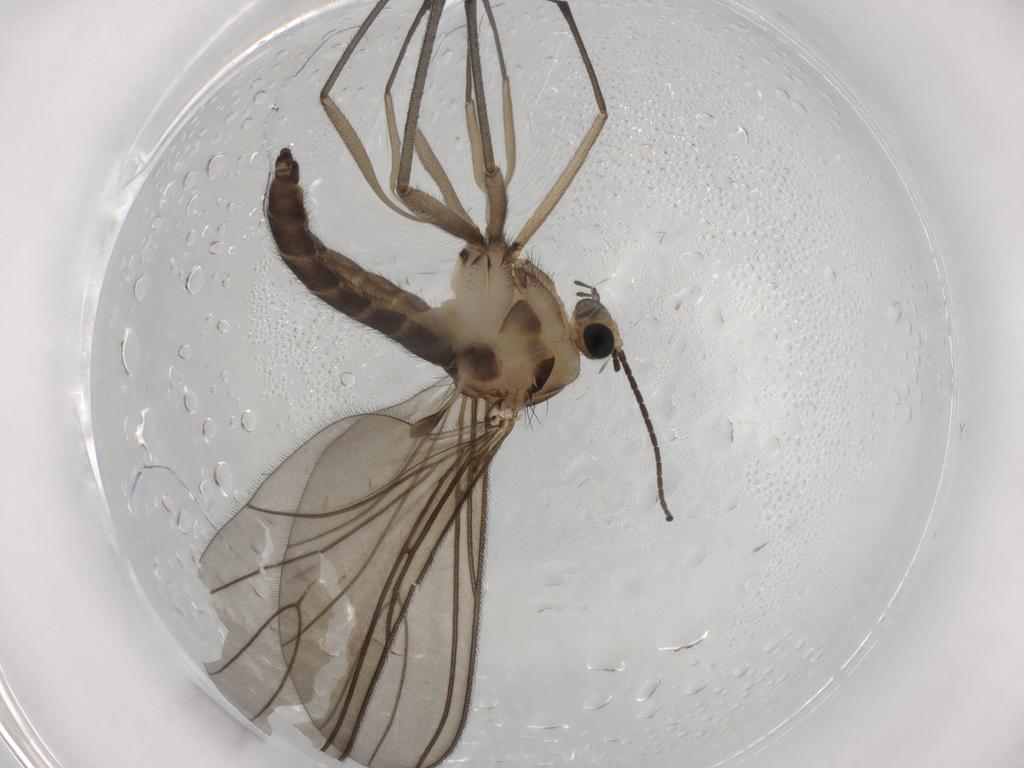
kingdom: Animalia
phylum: Arthropoda
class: Insecta
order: Diptera
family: Sciaridae
